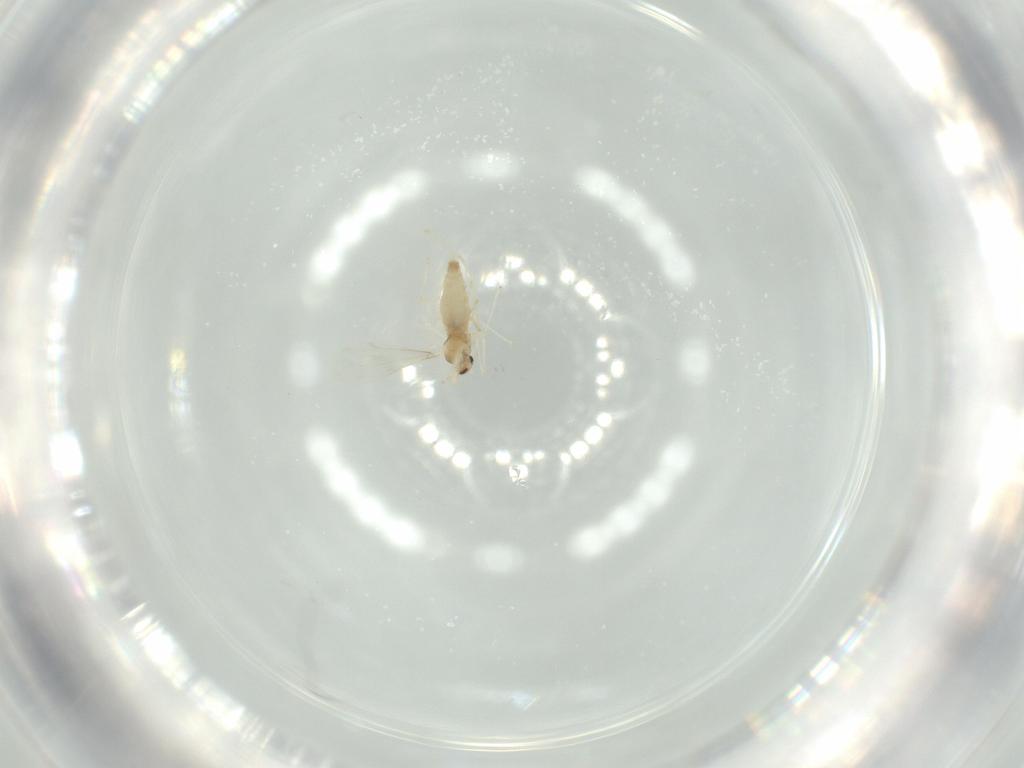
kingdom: Animalia
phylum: Arthropoda
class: Insecta
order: Diptera
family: Cecidomyiidae
